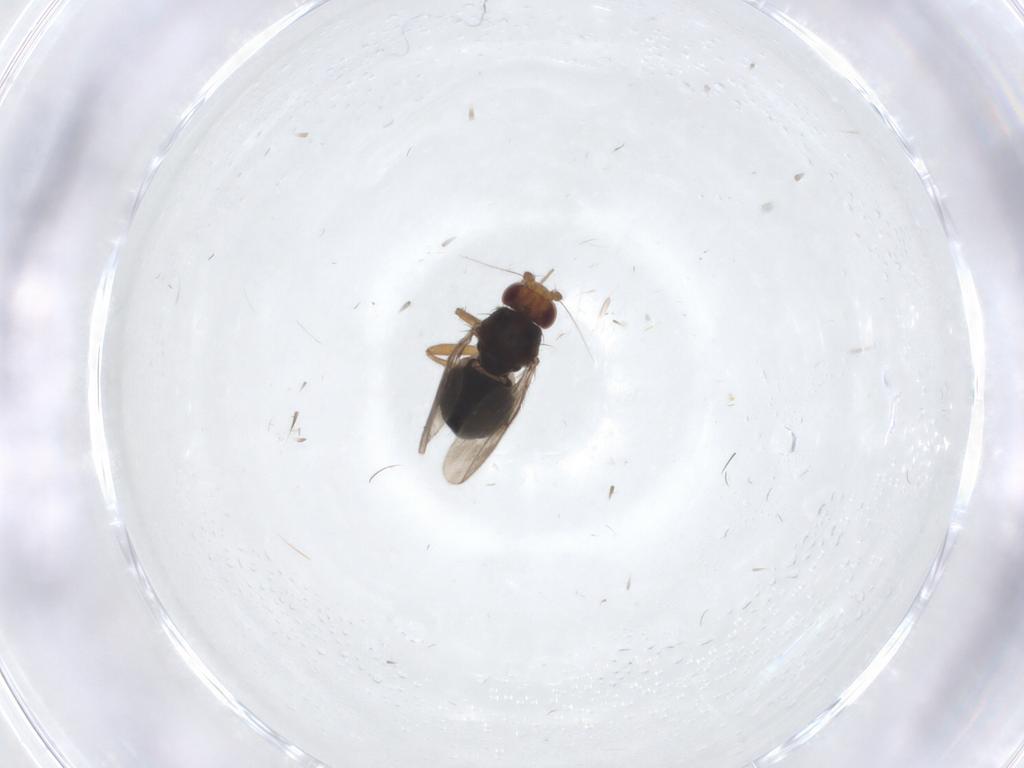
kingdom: Animalia
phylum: Arthropoda
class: Insecta
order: Diptera
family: Sphaeroceridae
